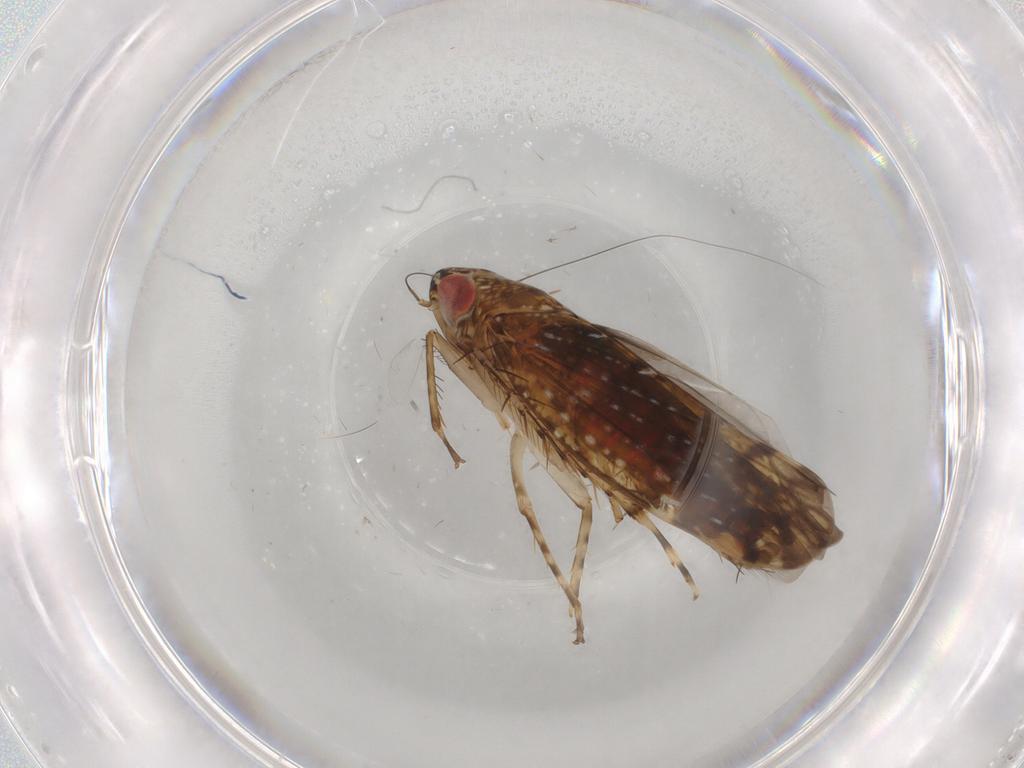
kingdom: Animalia
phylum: Arthropoda
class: Insecta
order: Hemiptera
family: Cicadellidae
